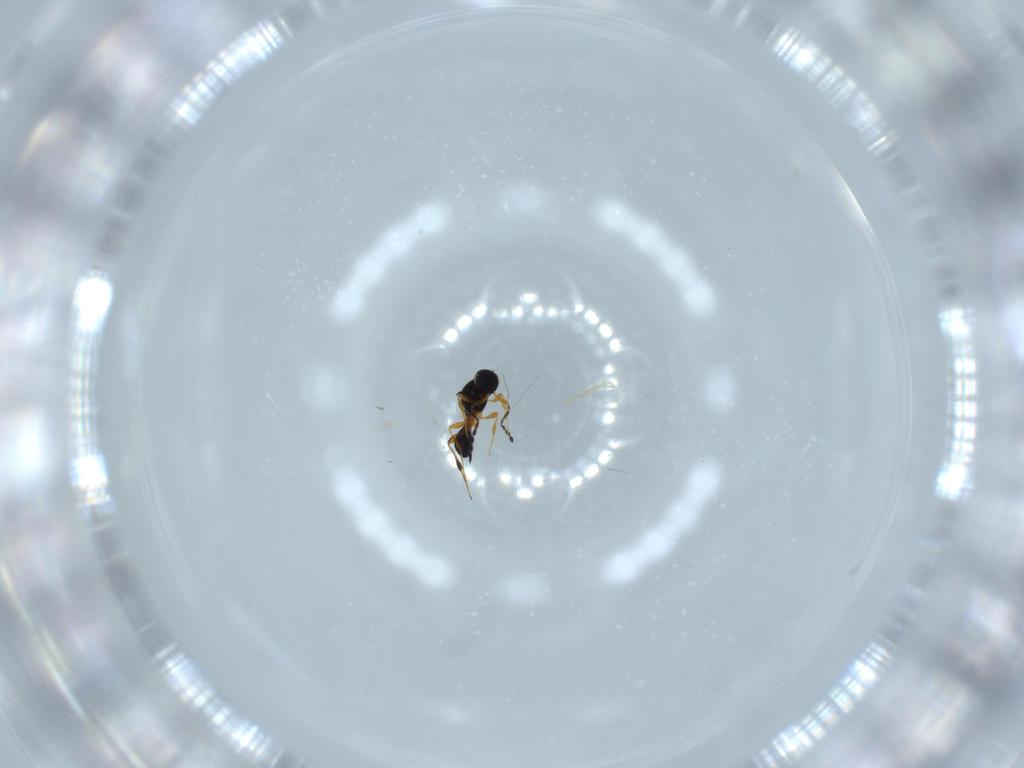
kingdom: Animalia
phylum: Arthropoda
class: Insecta
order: Hymenoptera
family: Platygastridae
